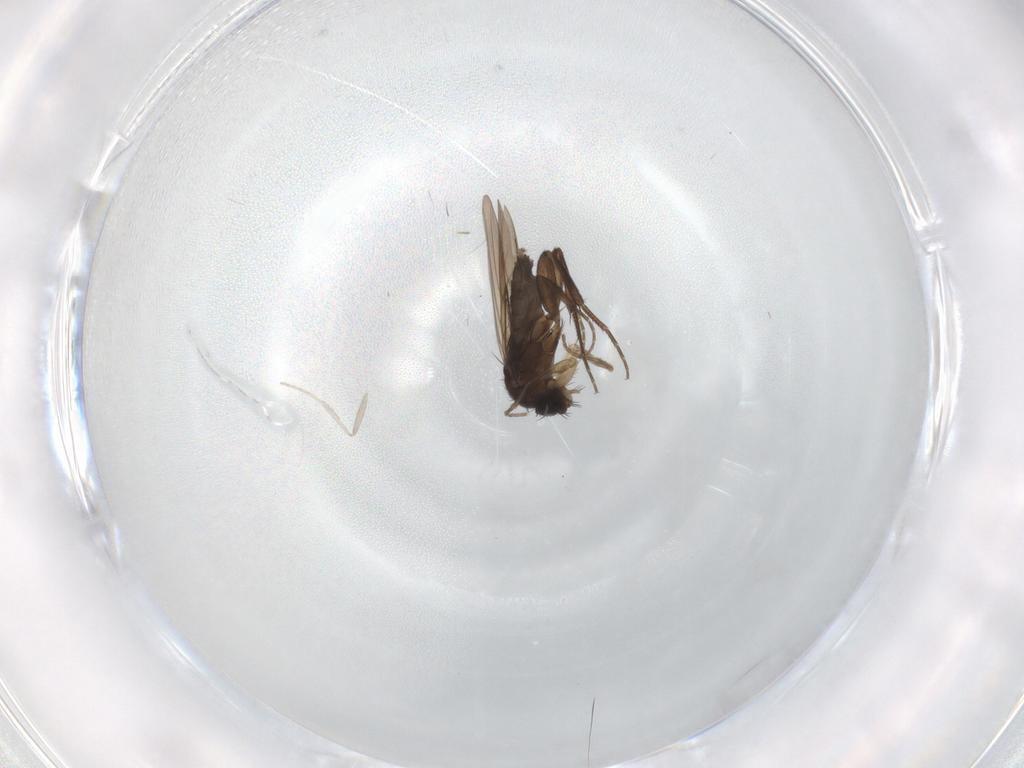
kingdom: Animalia
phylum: Arthropoda
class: Insecta
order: Diptera
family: Phoridae
